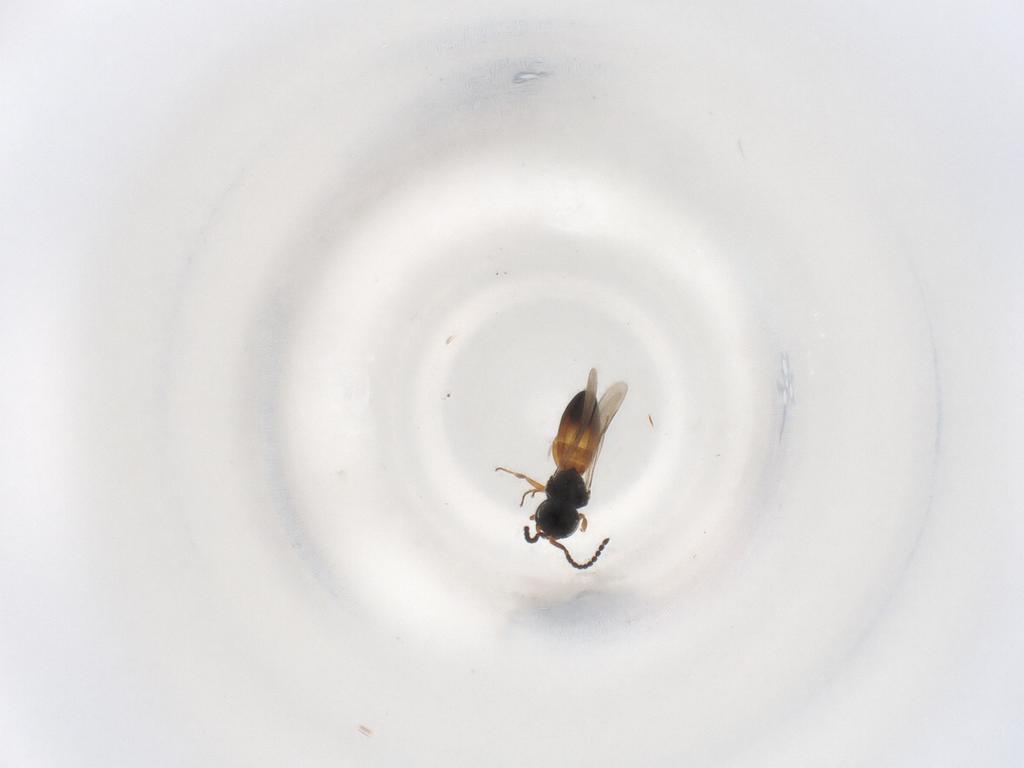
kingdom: Animalia
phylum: Arthropoda
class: Insecta
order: Hymenoptera
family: Scelionidae
